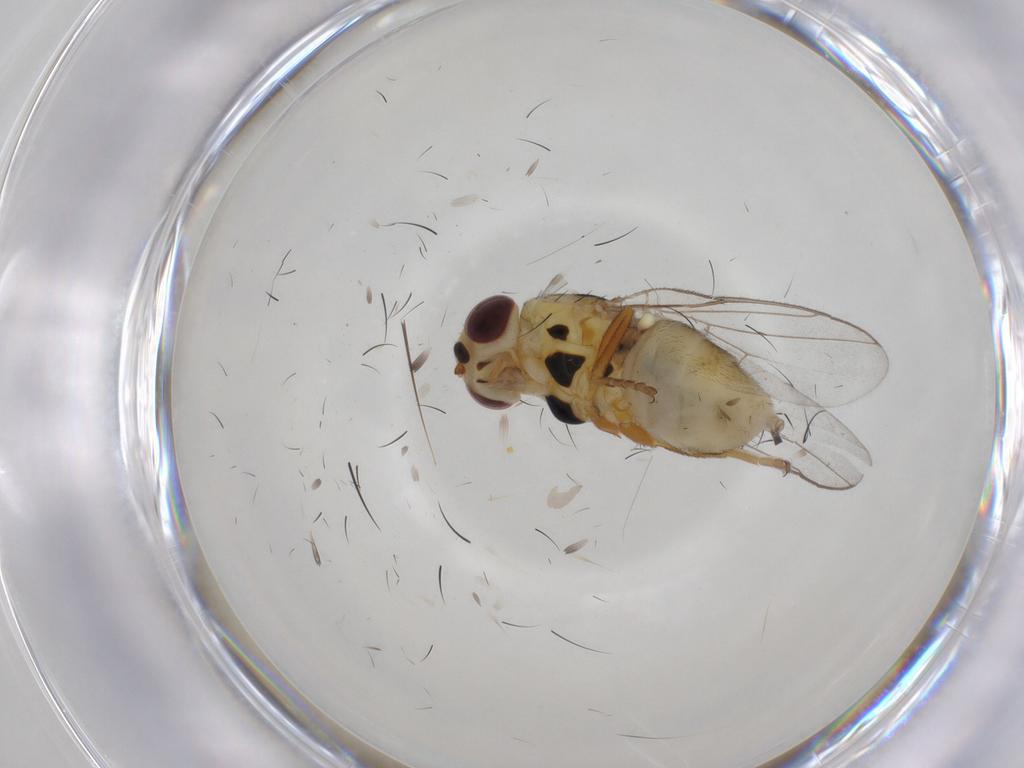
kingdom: Animalia
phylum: Arthropoda
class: Insecta
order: Diptera
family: Chloropidae
